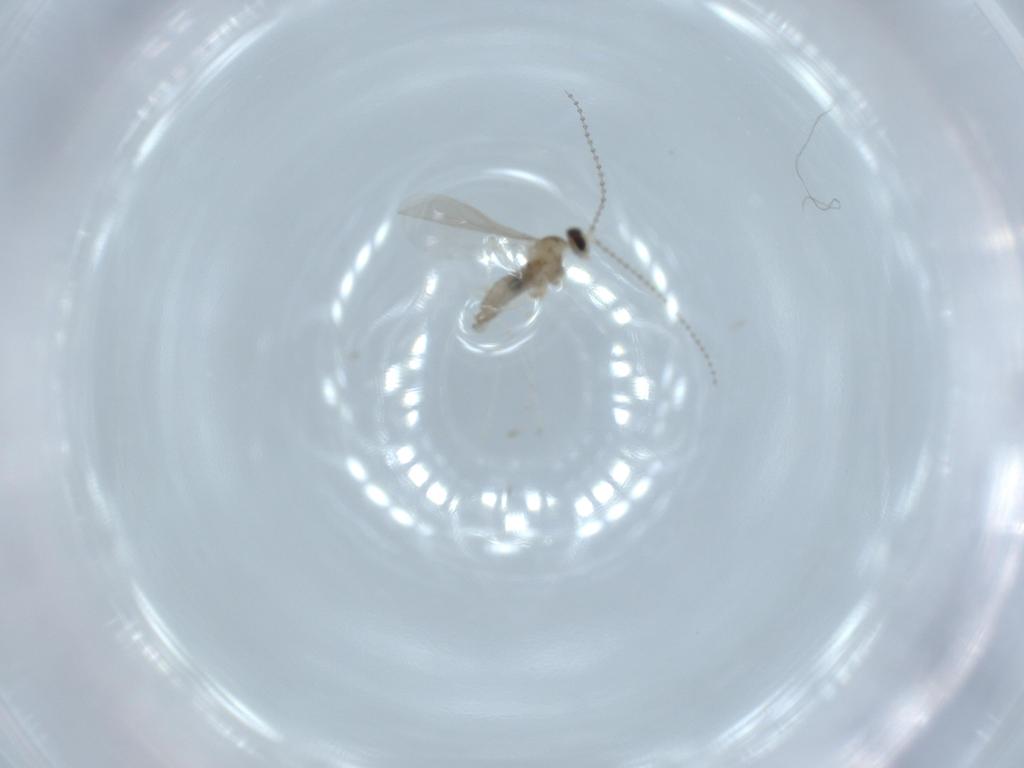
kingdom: Animalia
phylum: Arthropoda
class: Insecta
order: Diptera
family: Cecidomyiidae
